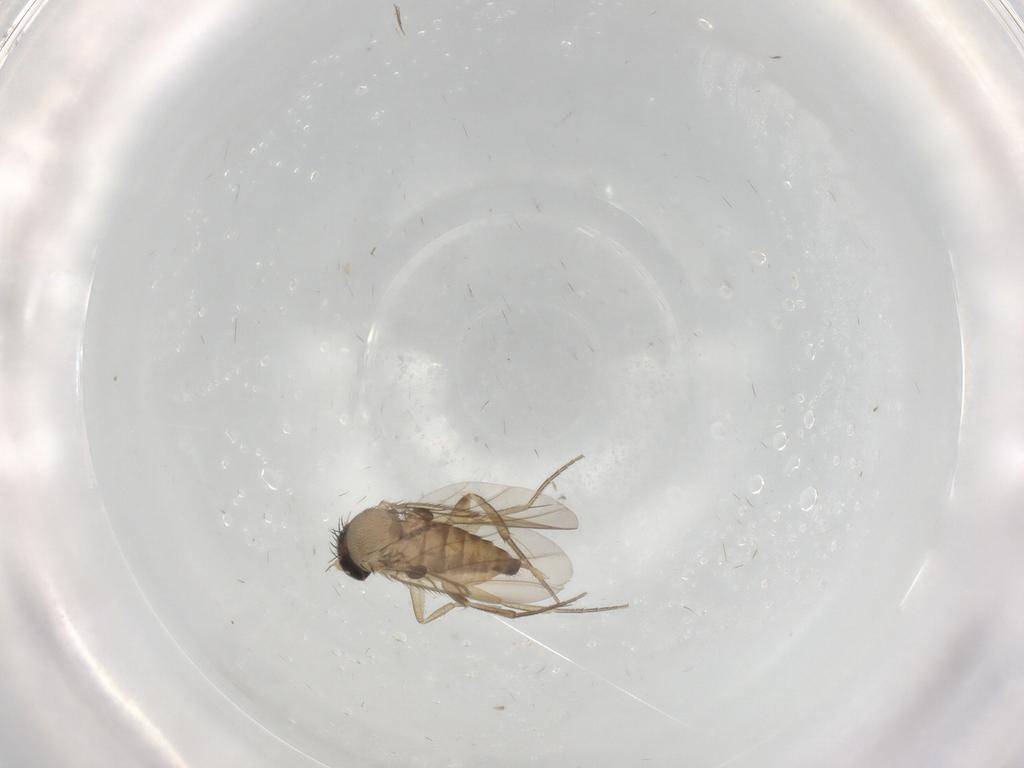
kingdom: Animalia
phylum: Arthropoda
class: Insecta
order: Diptera
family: Phoridae
